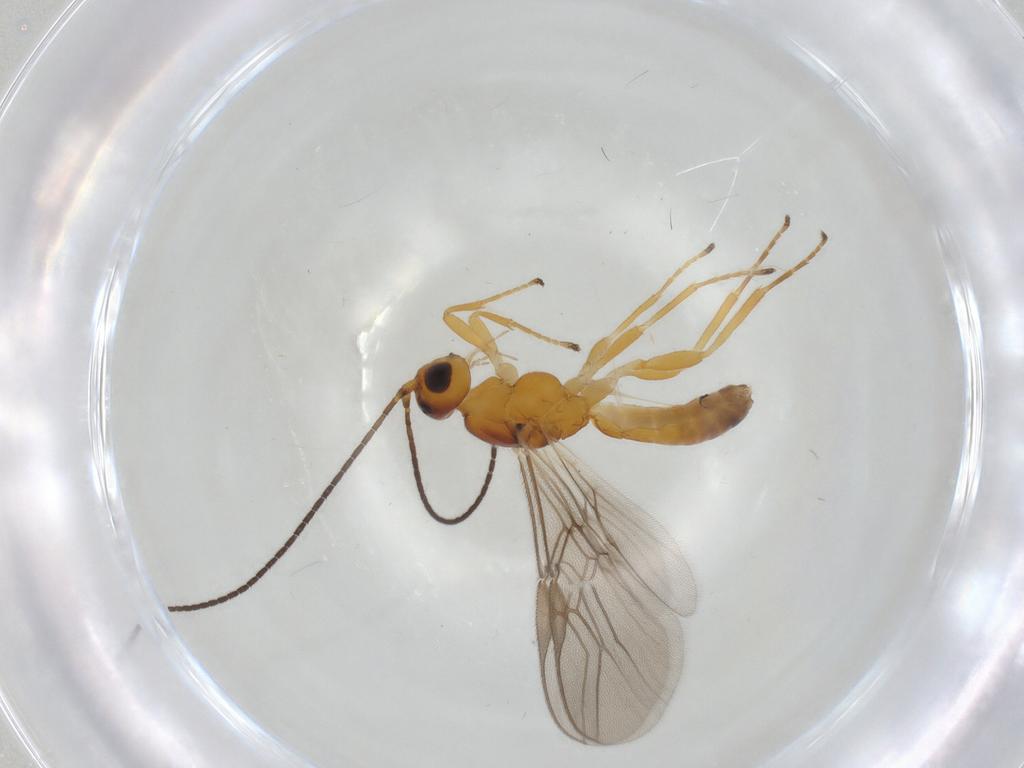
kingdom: Animalia
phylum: Arthropoda
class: Insecta
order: Hymenoptera
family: Braconidae
